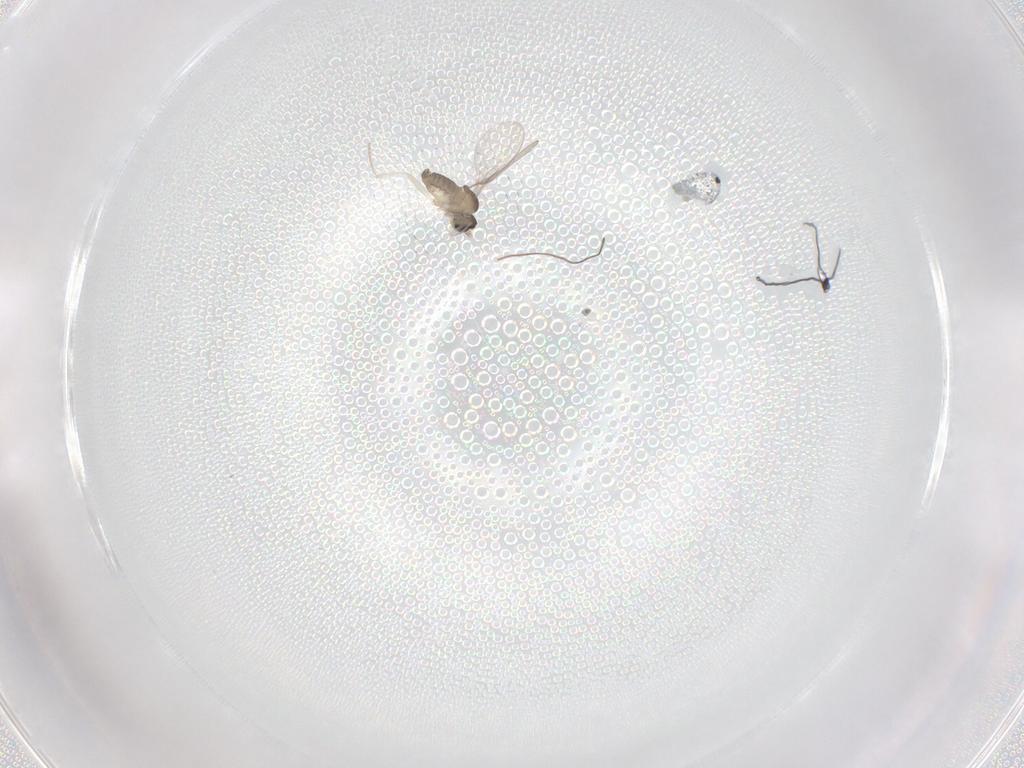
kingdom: Animalia
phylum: Arthropoda
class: Insecta
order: Diptera
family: Cecidomyiidae
